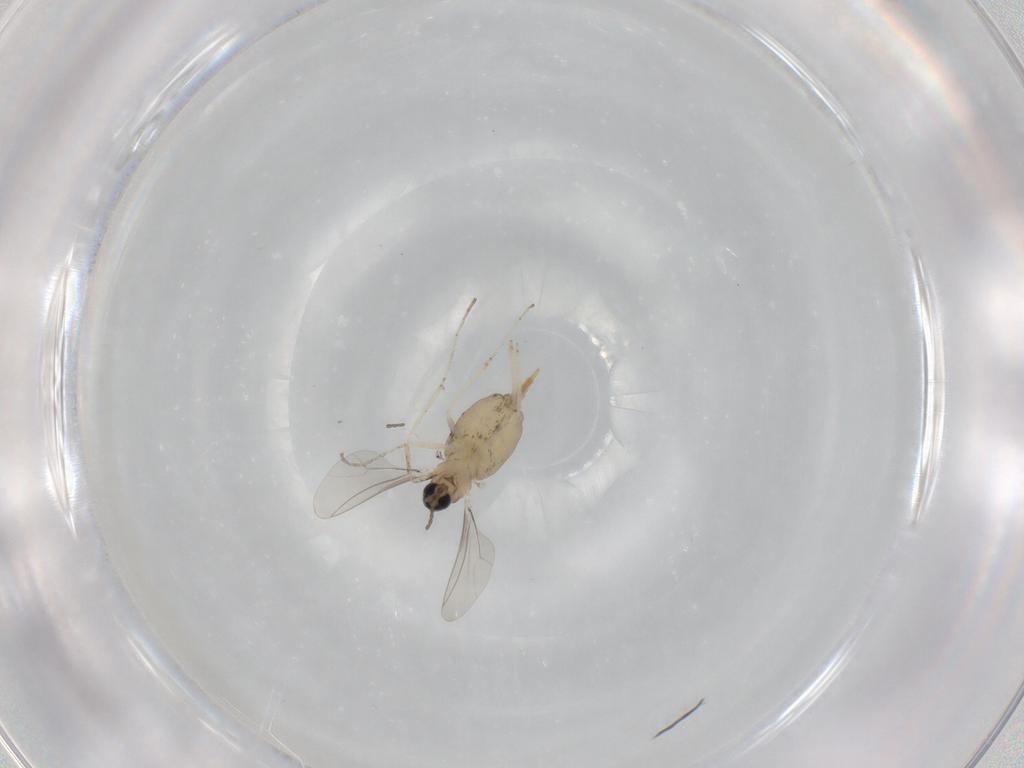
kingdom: Animalia
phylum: Arthropoda
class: Insecta
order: Diptera
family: Cecidomyiidae
